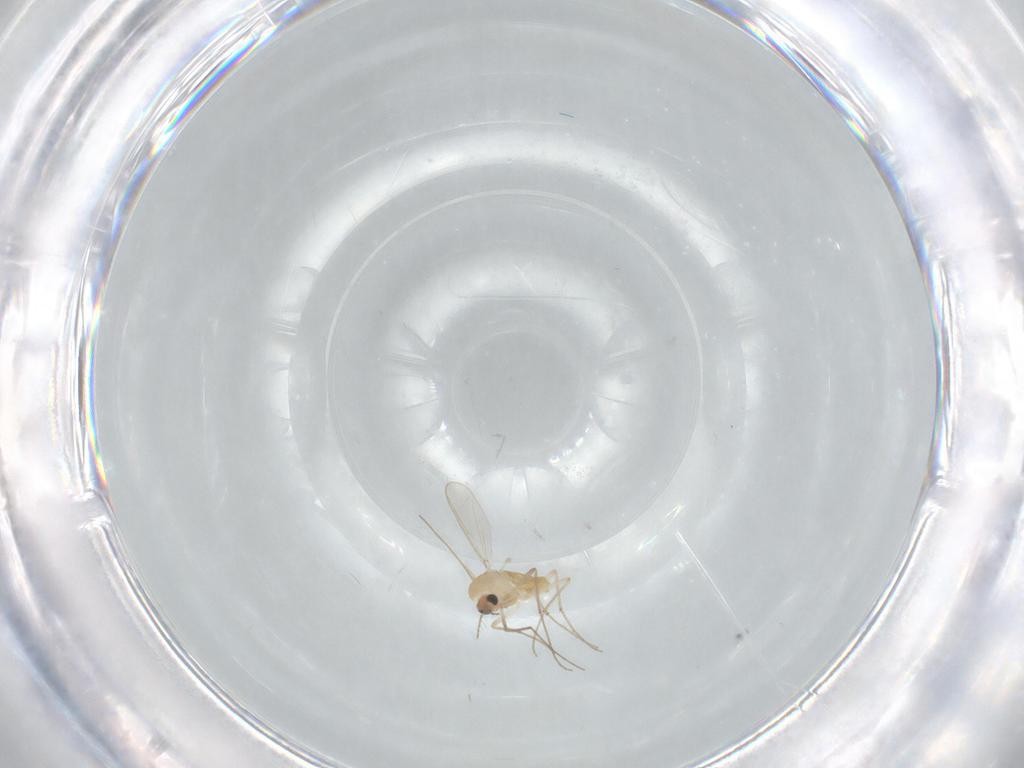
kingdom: Animalia
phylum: Arthropoda
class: Insecta
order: Diptera
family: Chironomidae
